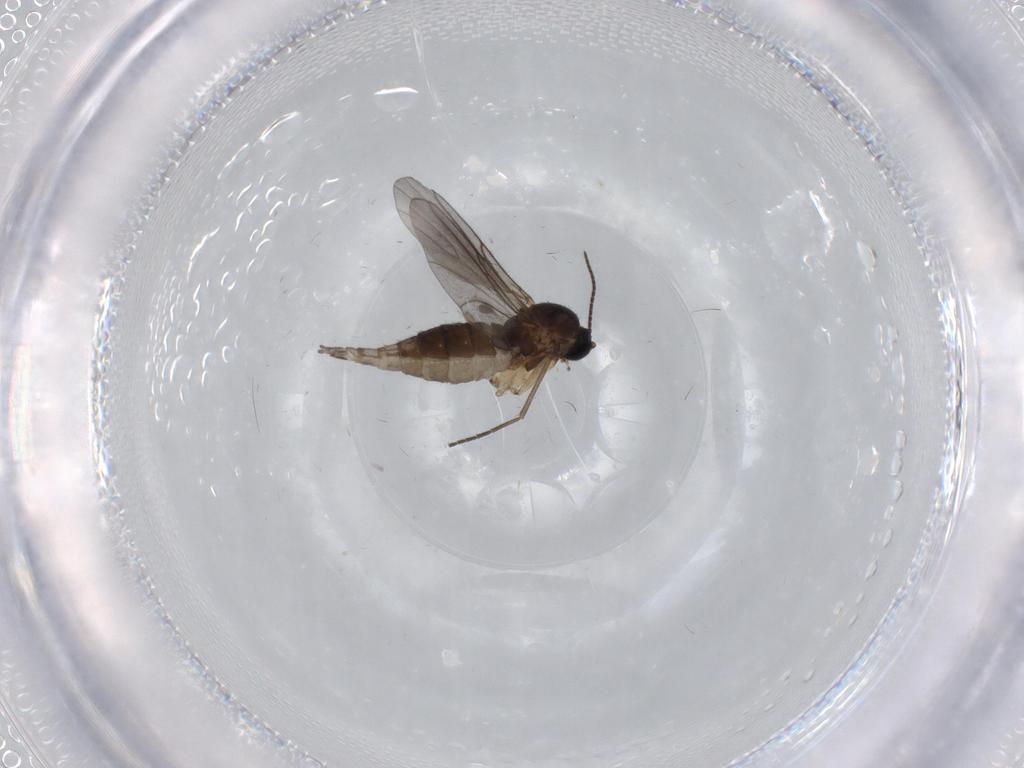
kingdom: Animalia
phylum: Arthropoda
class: Insecta
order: Diptera
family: Sciaridae
